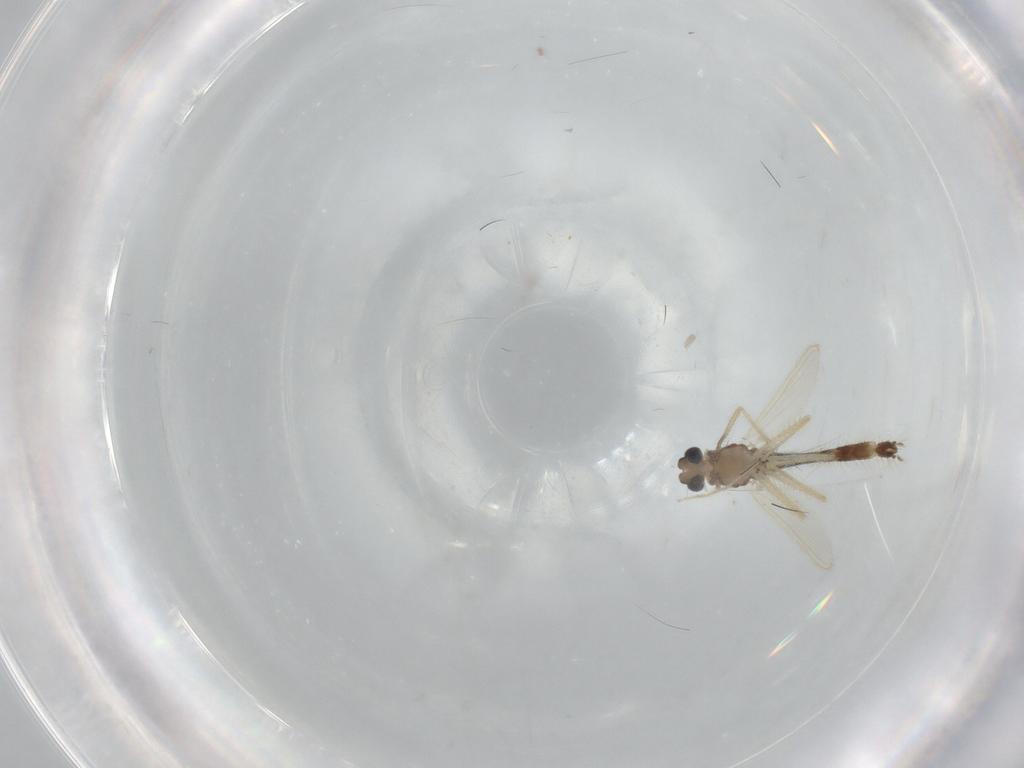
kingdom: Animalia
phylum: Arthropoda
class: Insecta
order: Diptera
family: Chironomidae
